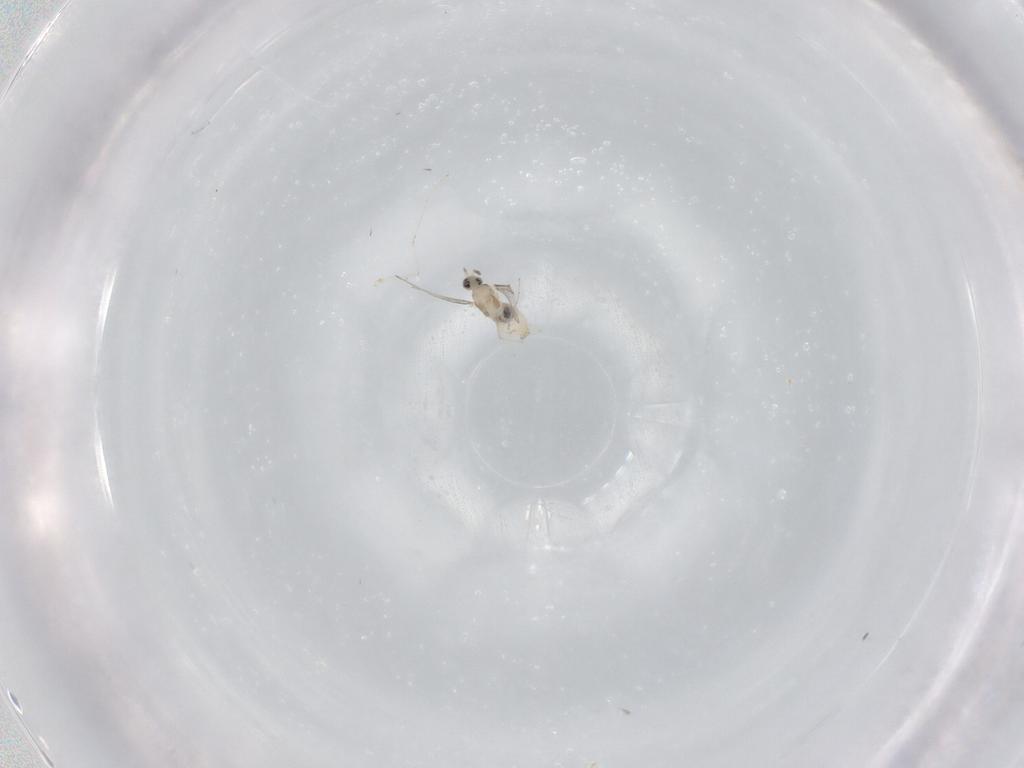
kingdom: Animalia
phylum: Arthropoda
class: Insecta
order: Diptera
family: Cecidomyiidae
